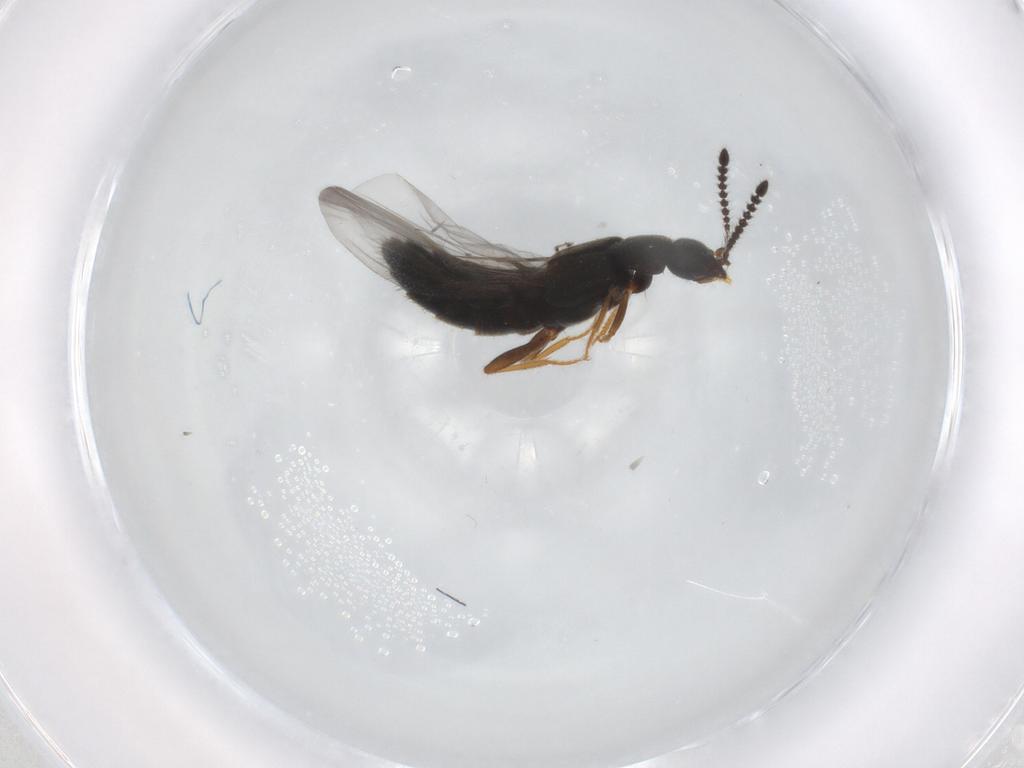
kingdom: Animalia
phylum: Arthropoda
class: Insecta
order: Coleoptera
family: Staphylinidae
